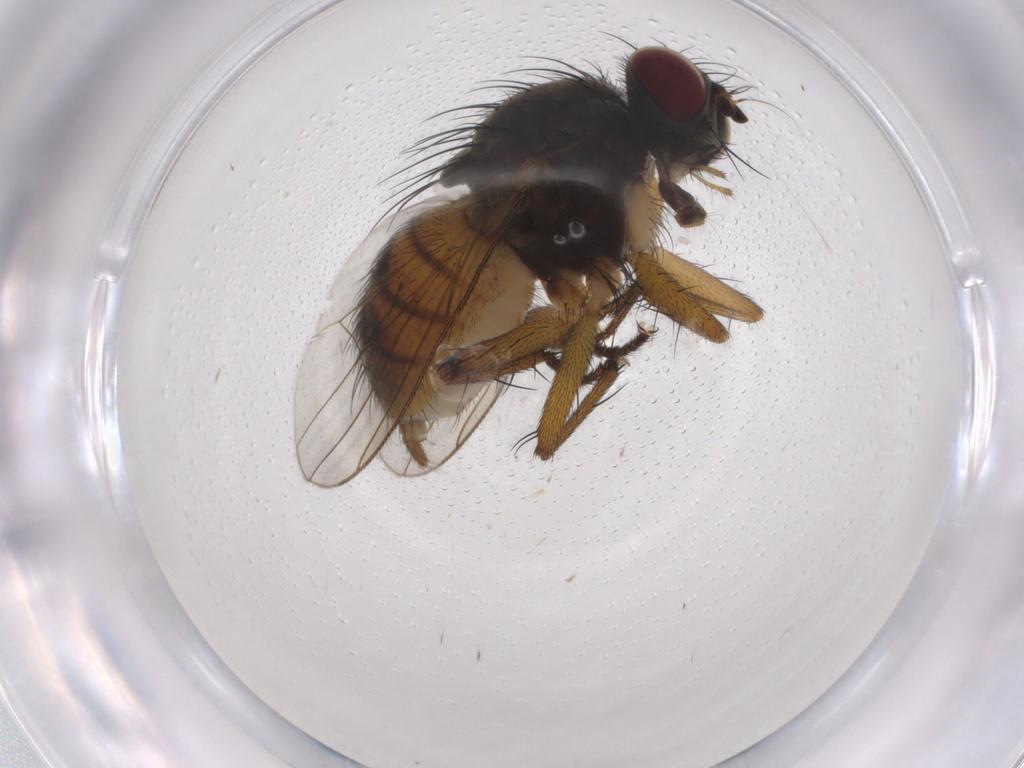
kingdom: Animalia
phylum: Arthropoda
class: Insecta
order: Diptera
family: Muscidae
